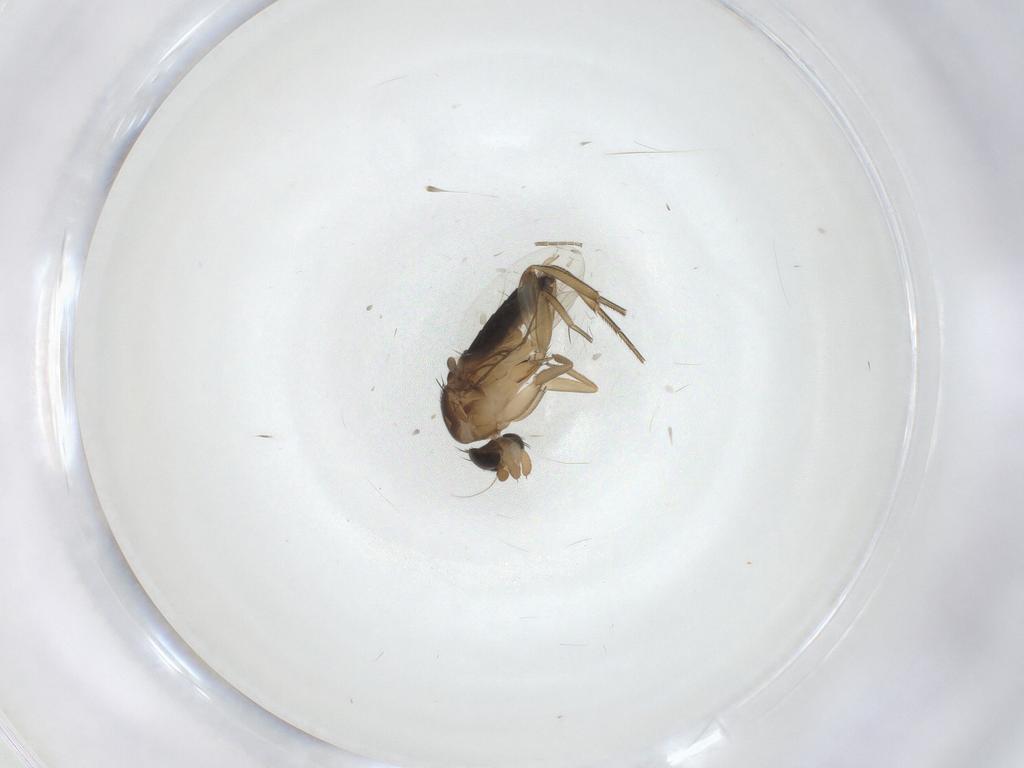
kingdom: Animalia
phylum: Arthropoda
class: Insecta
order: Diptera
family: Phoridae
